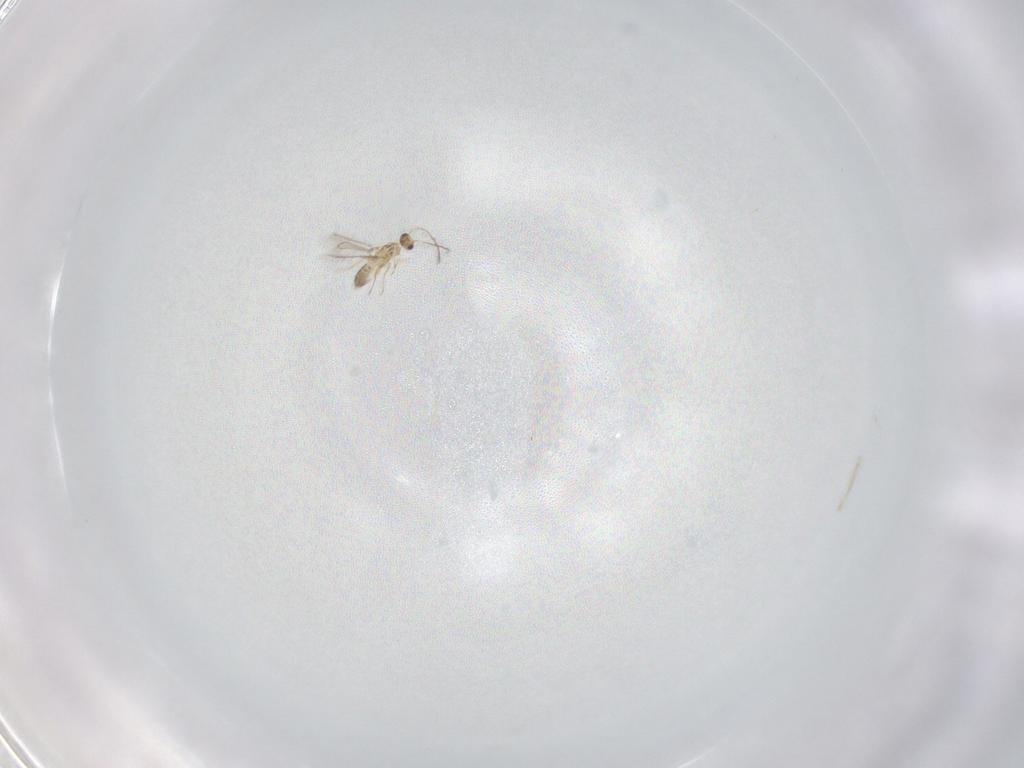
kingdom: Animalia
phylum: Arthropoda
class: Insecta
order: Hymenoptera
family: Mymaridae
